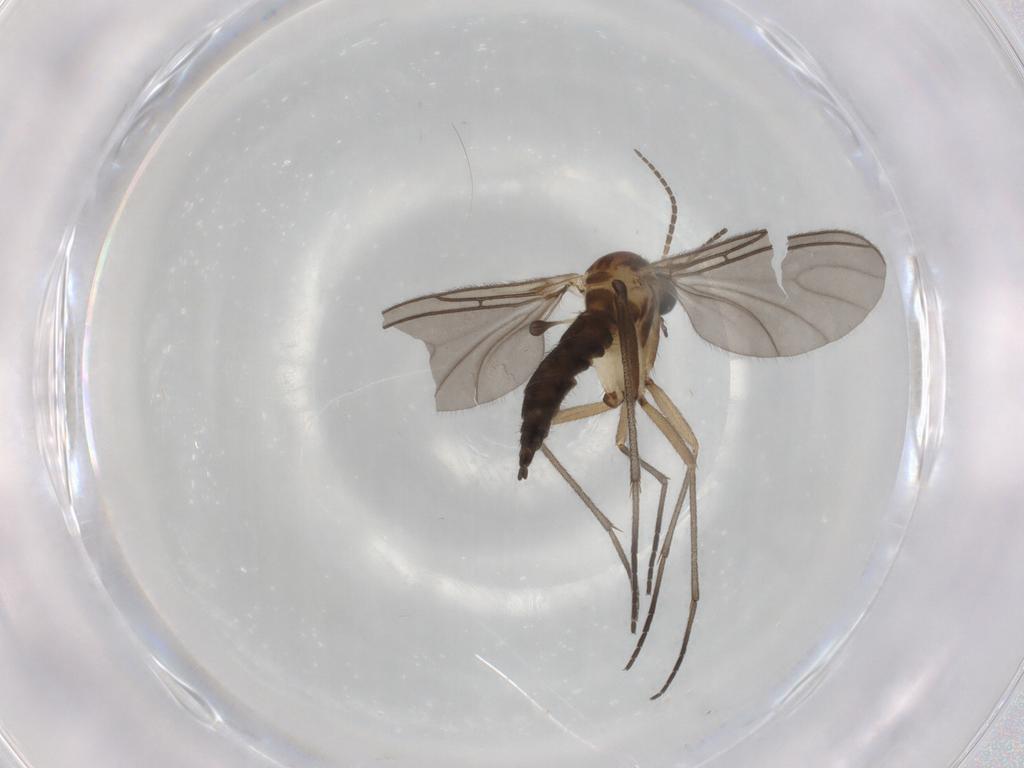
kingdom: Animalia
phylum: Arthropoda
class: Insecta
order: Diptera
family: Sciaridae
